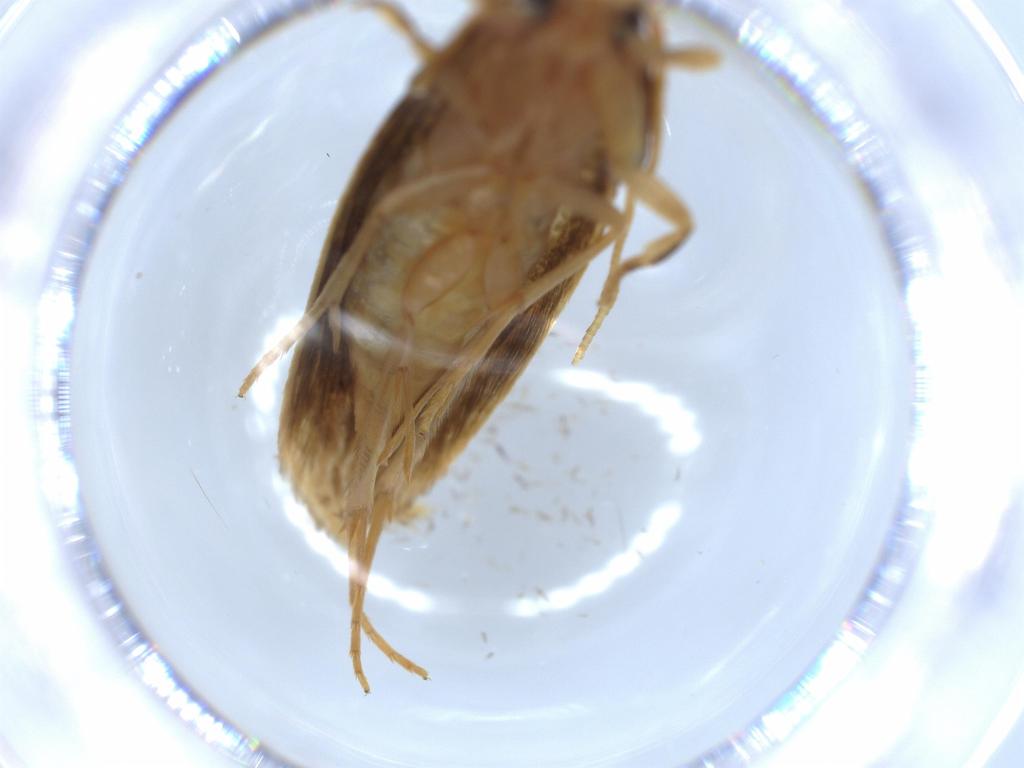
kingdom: Animalia
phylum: Arthropoda
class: Insecta
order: Lepidoptera
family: Tineidae
